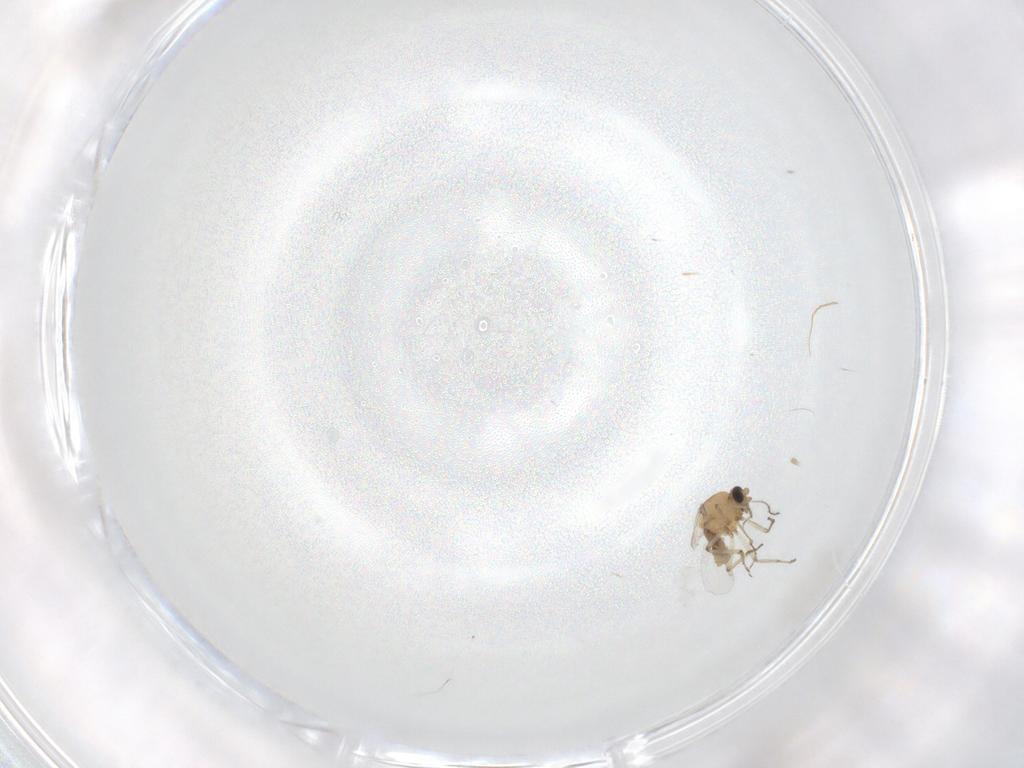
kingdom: Animalia
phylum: Arthropoda
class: Insecta
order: Diptera
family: Ceratopogonidae
